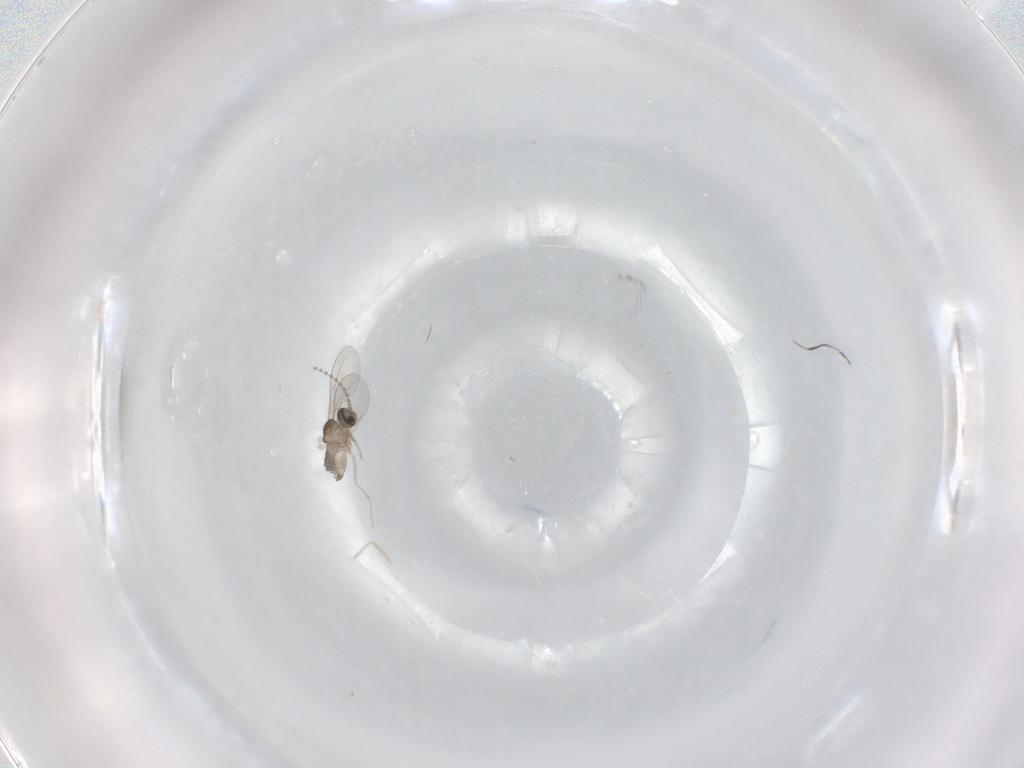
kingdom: Animalia
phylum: Arthropoda
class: Insecta
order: Diptera
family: Cecidomyiidae
